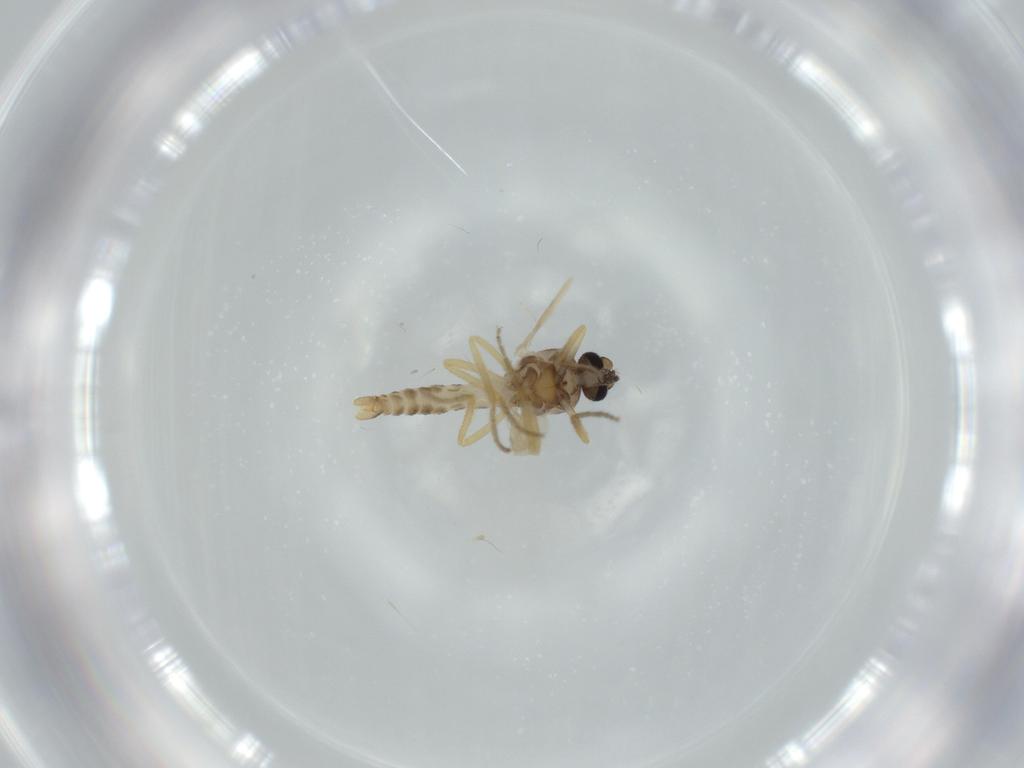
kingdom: Animalia
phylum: Arthropoda
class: Insecta
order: Diptera
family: Ceratopogonidae
